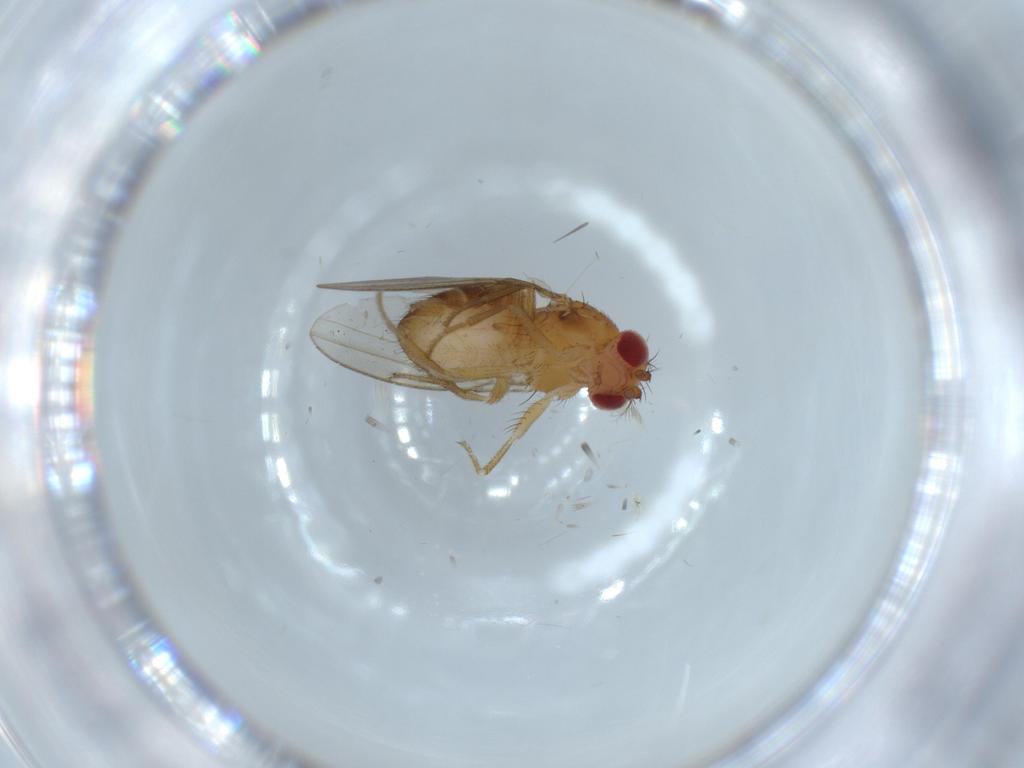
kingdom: Animalia
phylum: Arthropoda
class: Insecta
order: Diptera
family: Drosophilidae
